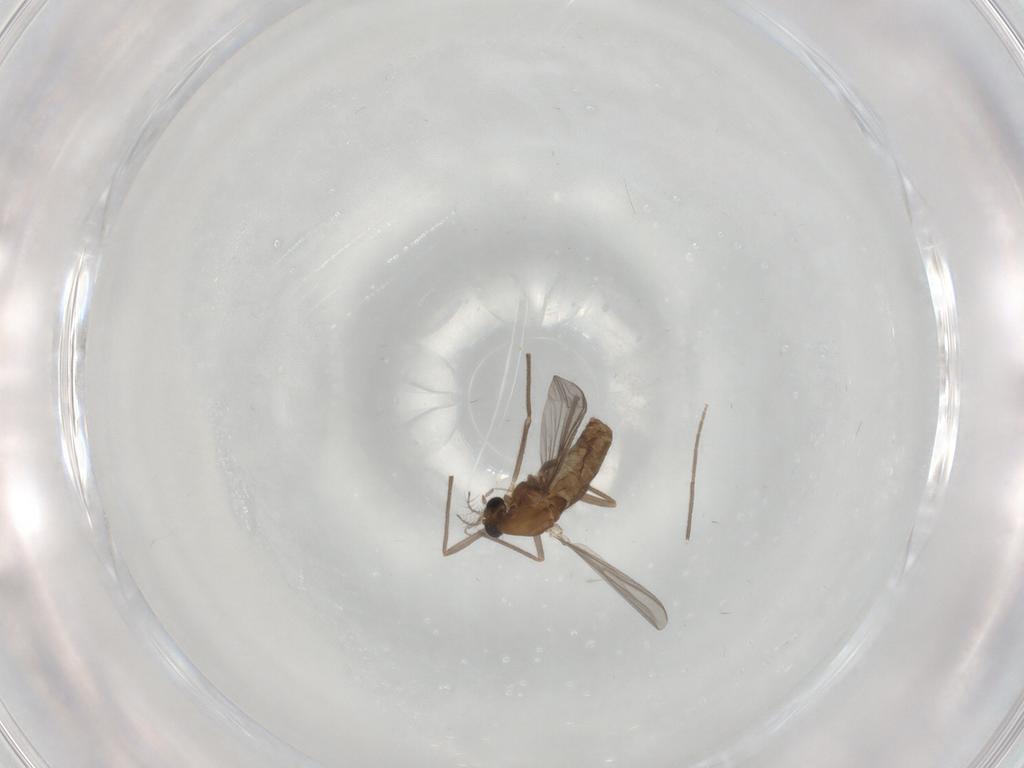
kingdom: Animalia
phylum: Arthropoda
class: Insecta
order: Diptera
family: Chironomidae
